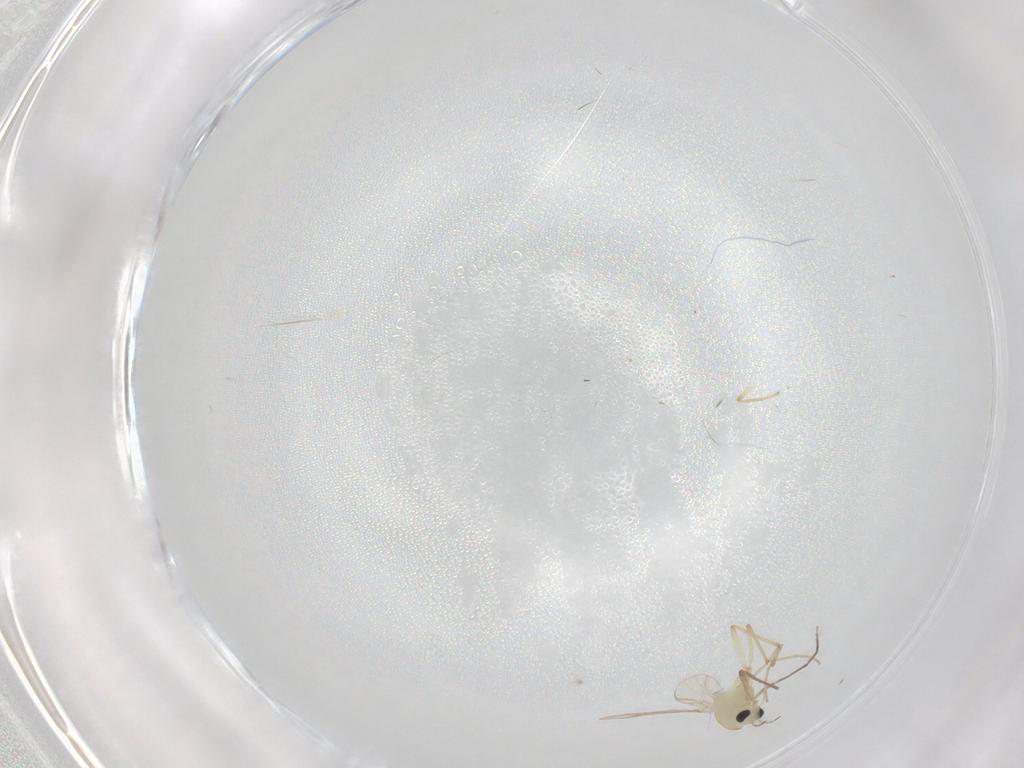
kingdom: Animalia
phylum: Arthropoda
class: Insecta
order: Diptera
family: Chironomidae
